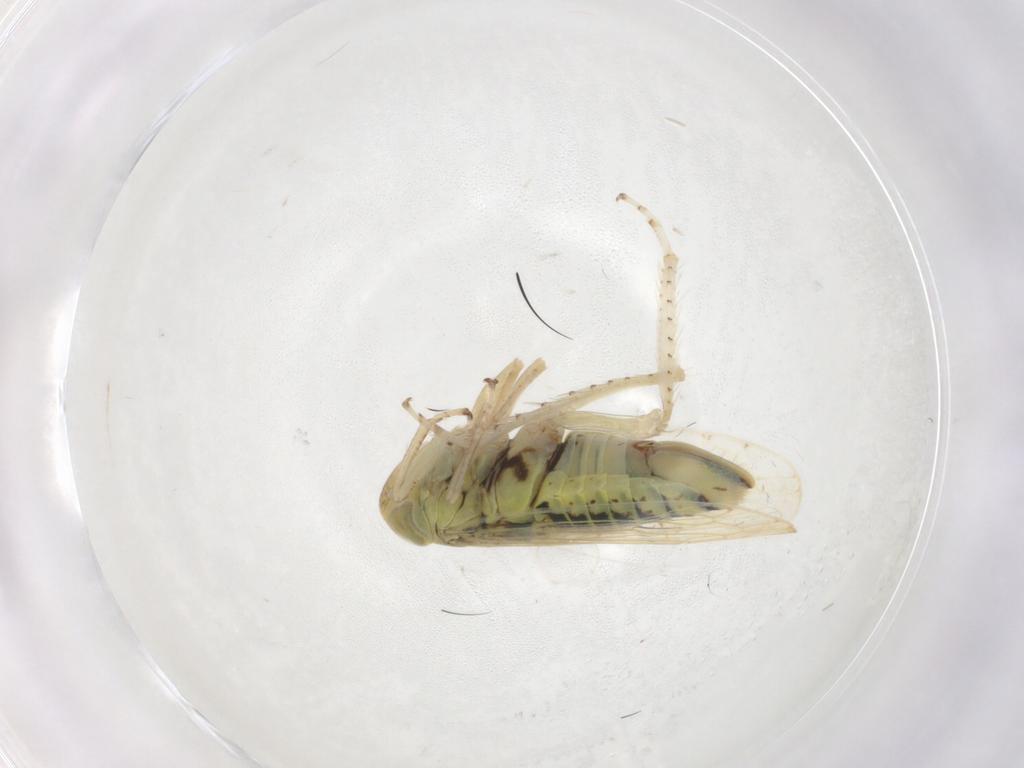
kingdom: Animalia
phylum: Arthropoda
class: Insecta
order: Hemiptera
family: Cicadellidae
